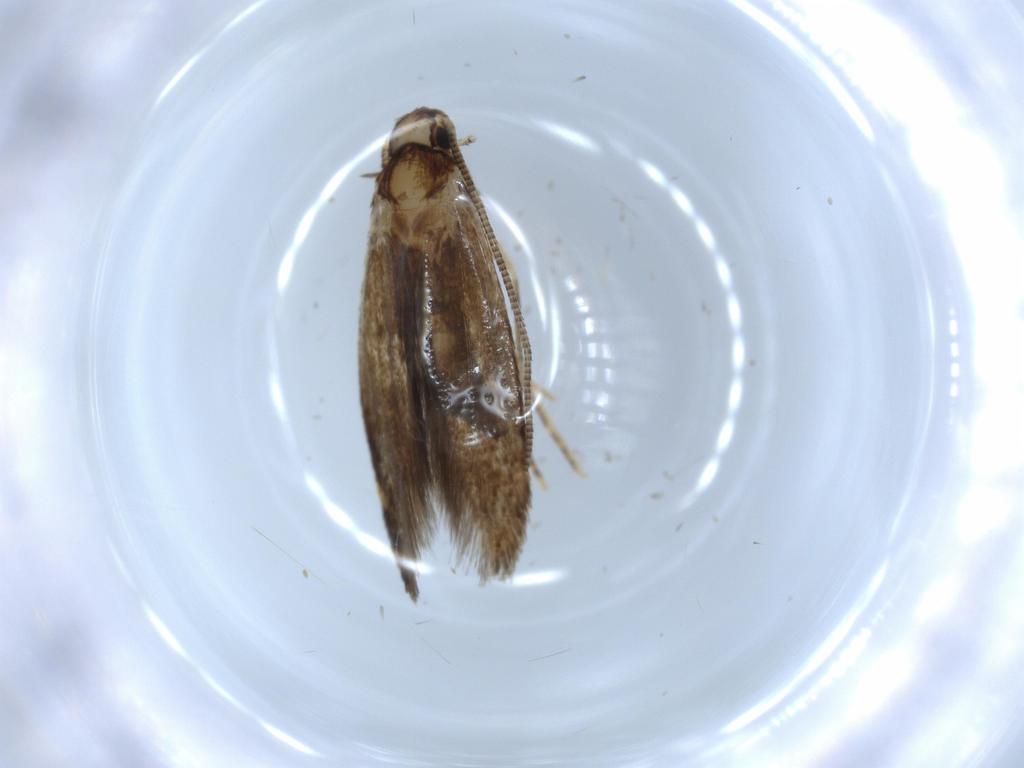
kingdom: Animalia
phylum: Arthropoda
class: Insecta
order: Lepidoptera
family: Tineidae
